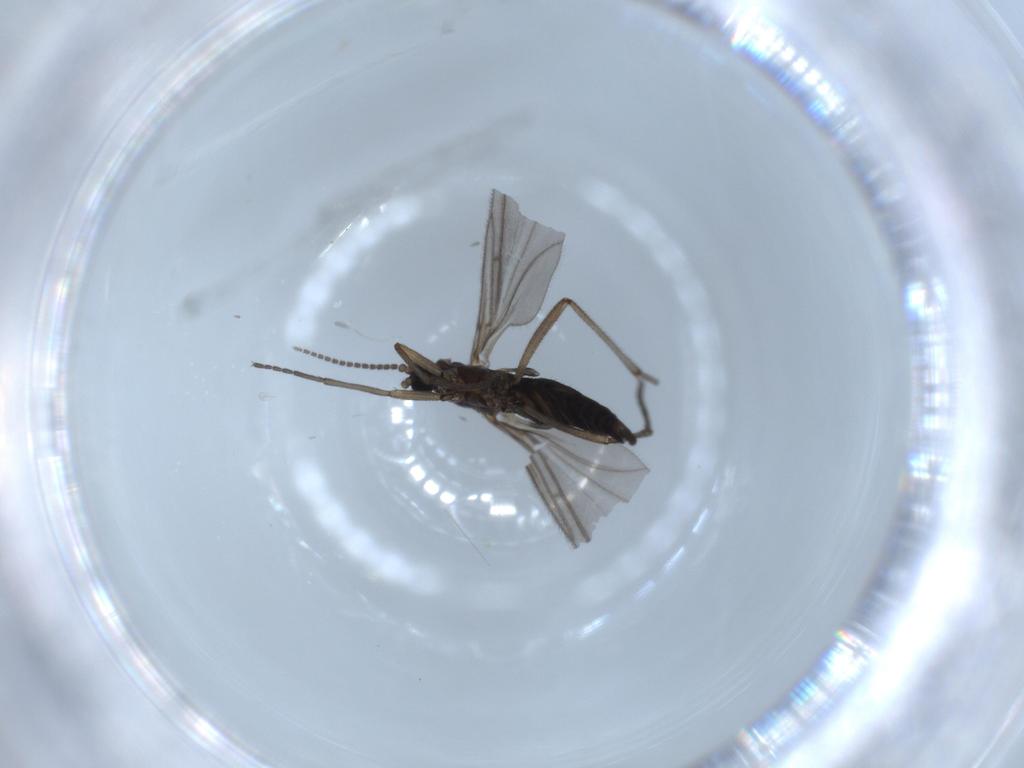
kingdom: Animalia
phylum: Arthropoda
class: Insecta
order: Diptera
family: Sciaridae
